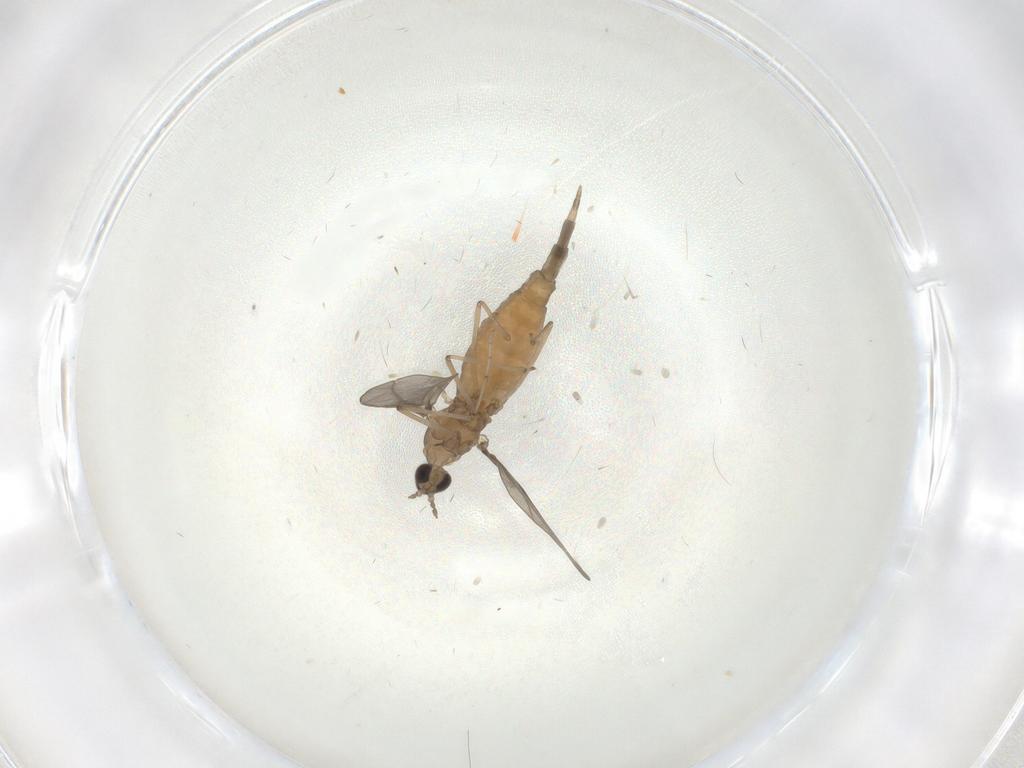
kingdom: Animalia
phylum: Arthropoda
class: Insecta
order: Diptera
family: Cecidomyiidae
